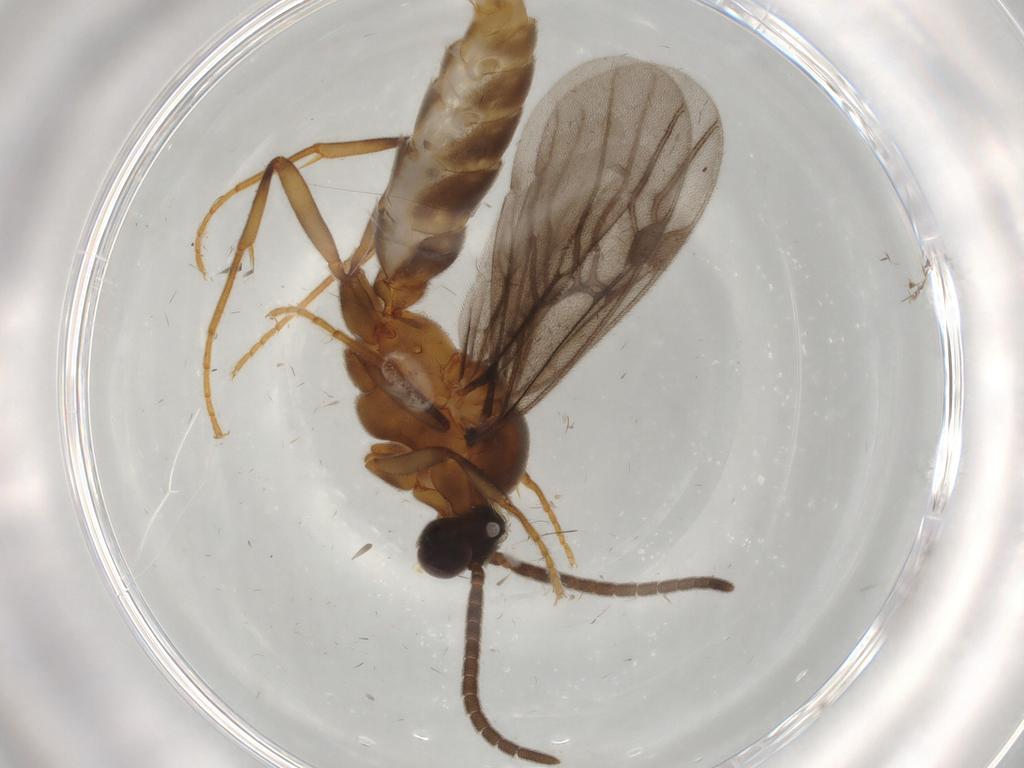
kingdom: Animalia
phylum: Arthropoda
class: Insecta
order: Hymenoptera
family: Formicidae
